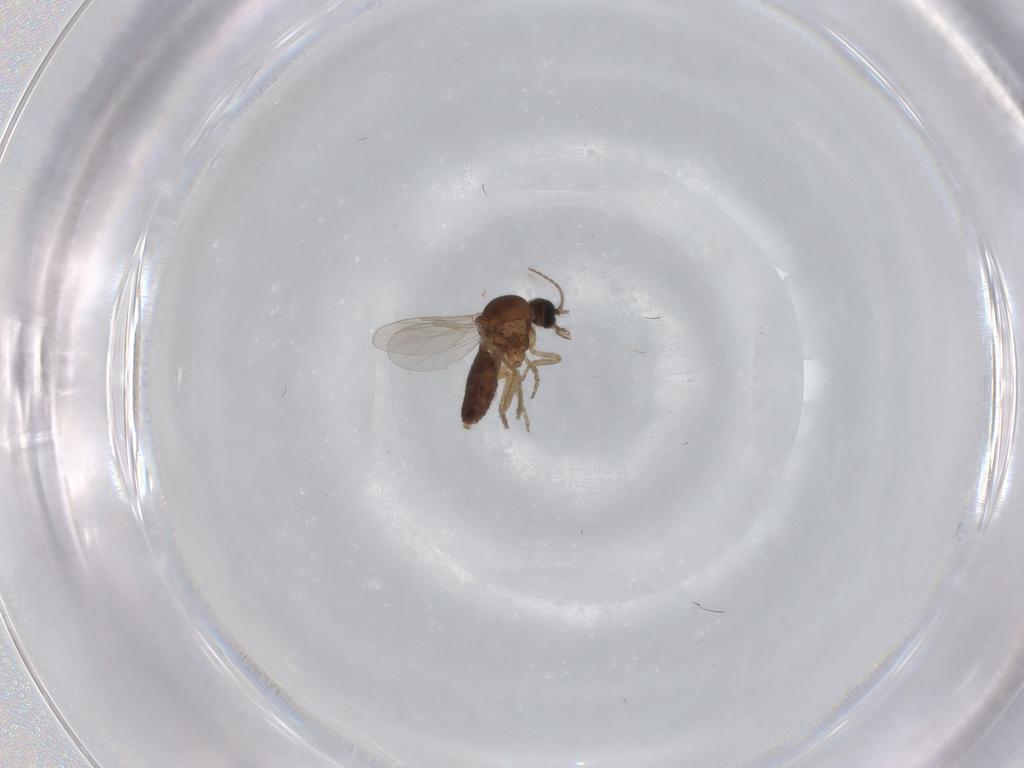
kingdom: Animalia
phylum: Arthropoda
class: Insecta
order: Diptera
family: Ceratopogonidae
